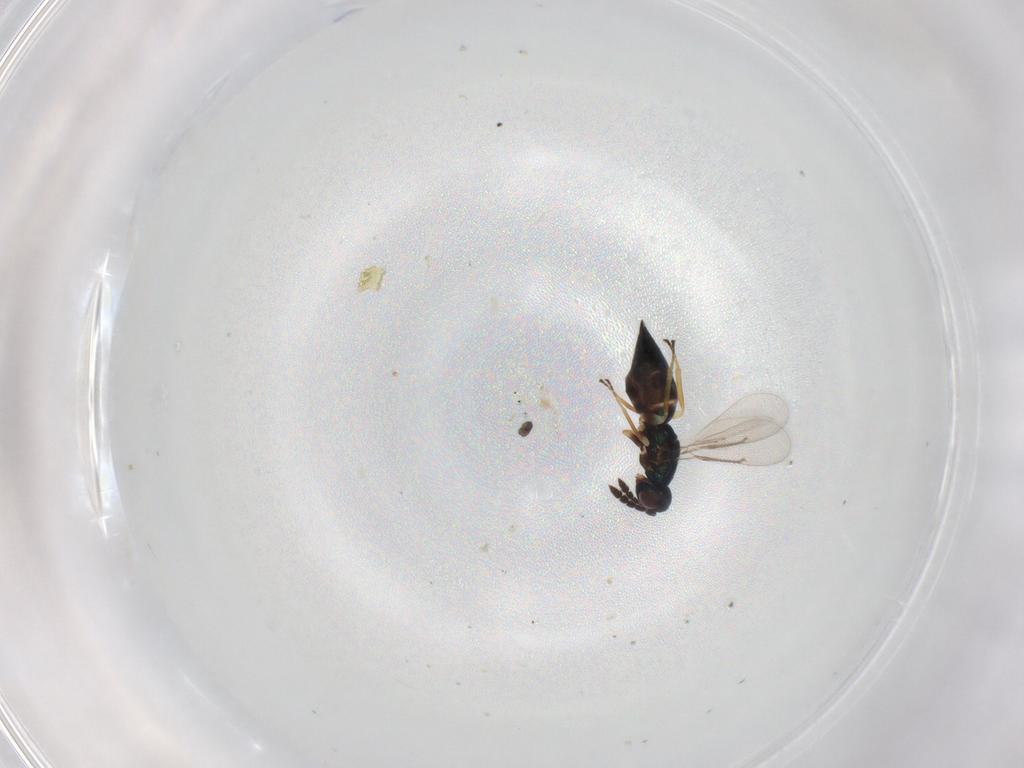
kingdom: Animalia
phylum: Arthropoda
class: Insecta
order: Hymenoptera
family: Eulophidae
